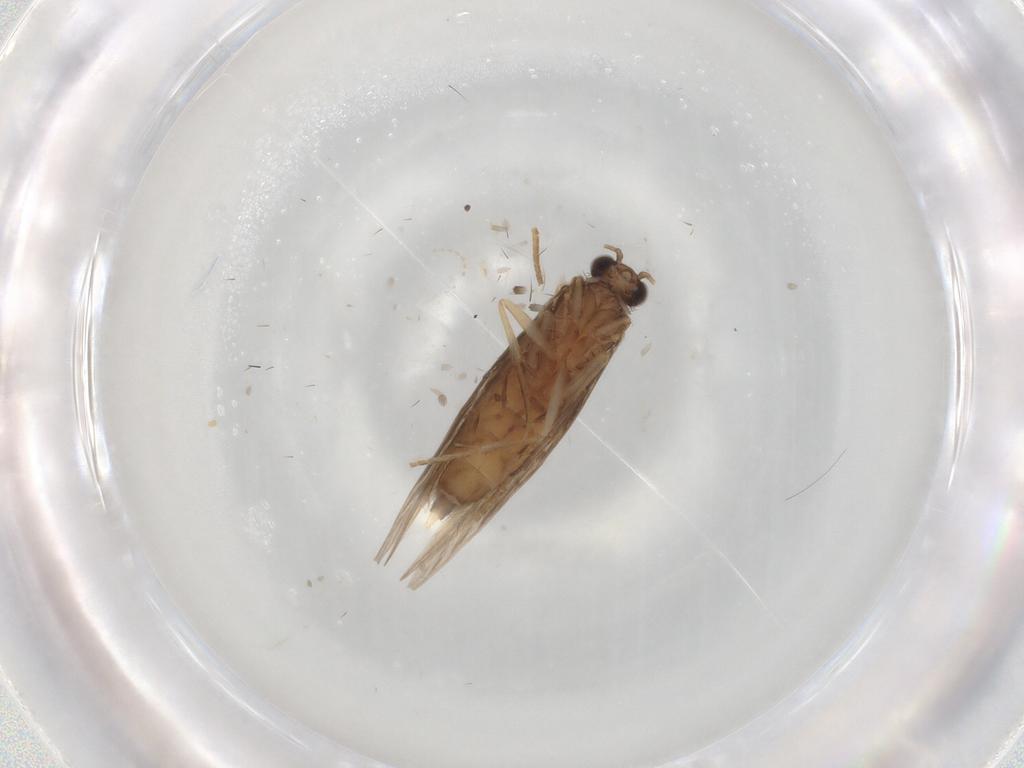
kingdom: Animalia
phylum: Arthropoda
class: Insecta
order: Trichoptera
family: Hydroptilidae
